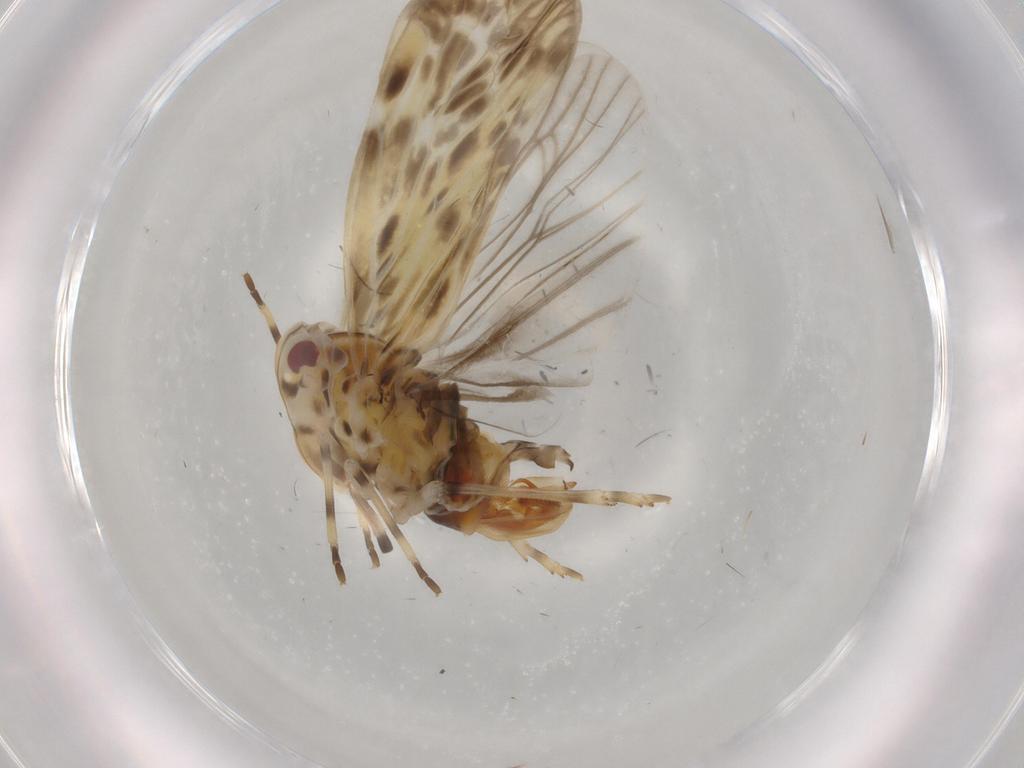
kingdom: Animalia
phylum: Arthropoda
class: Insecta
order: Hemiptera
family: Derbidae
